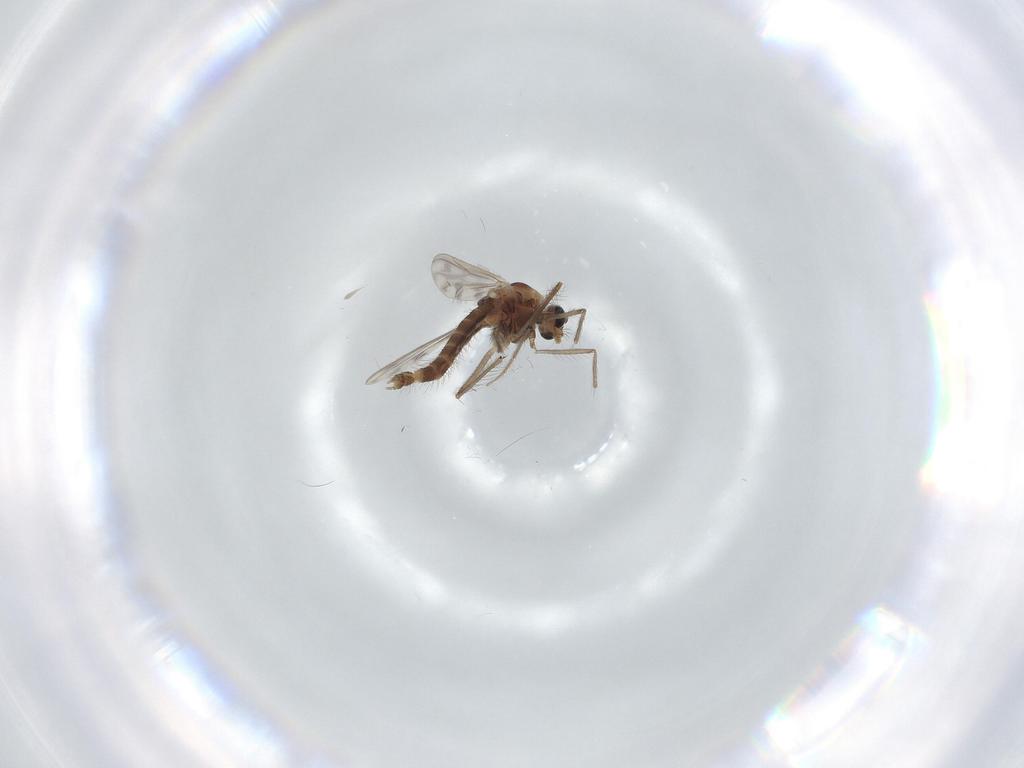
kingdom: Animalia
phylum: Arthropoda
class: Insecta
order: Diptera
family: Chironomidae
